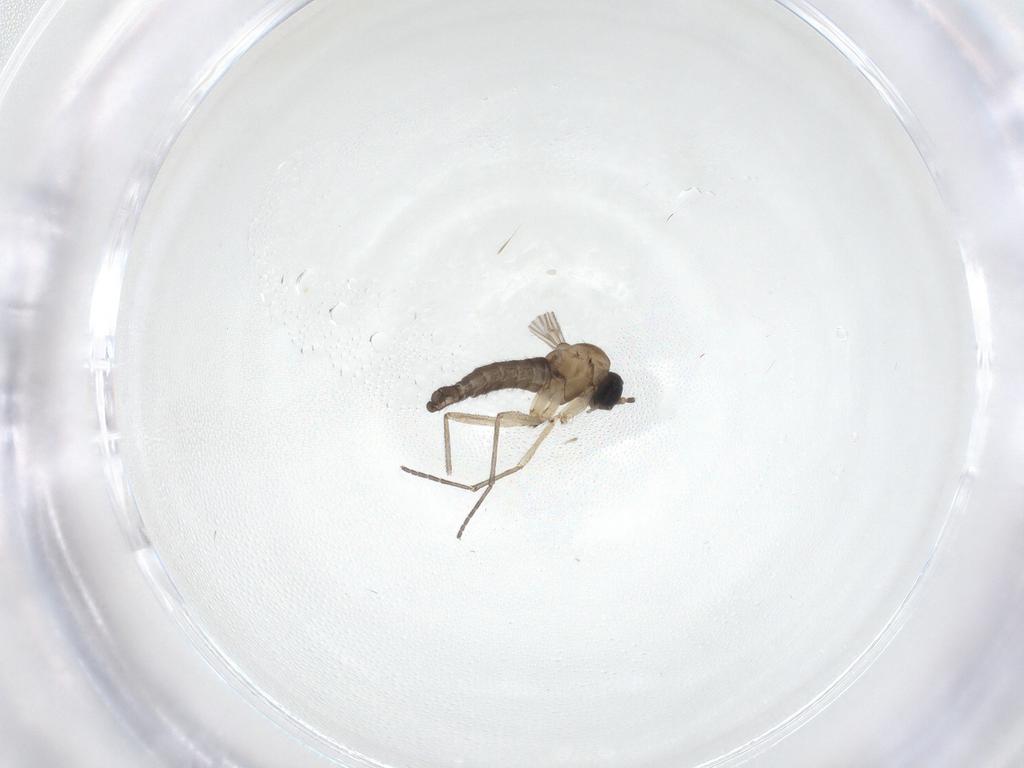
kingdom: Animalia
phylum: Arthropoda
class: Insecta
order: Diptera
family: Sciaridae
